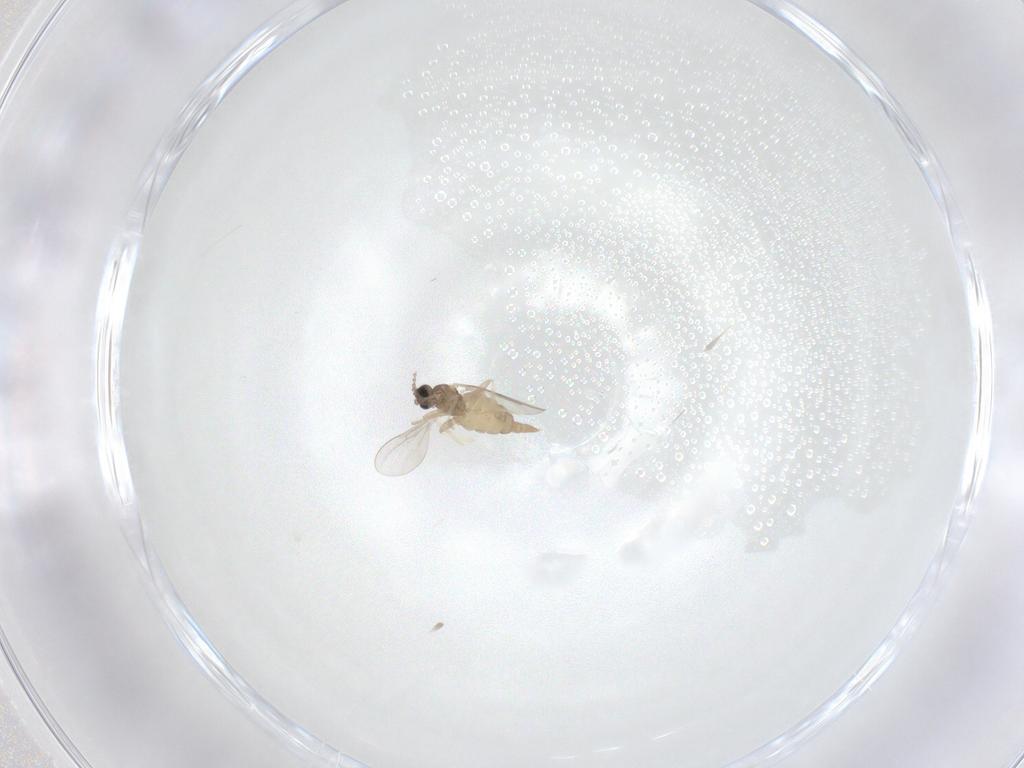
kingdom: Animalia
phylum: Arthropoda
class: Insecta
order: Diptera
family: Cecidomyiidae
